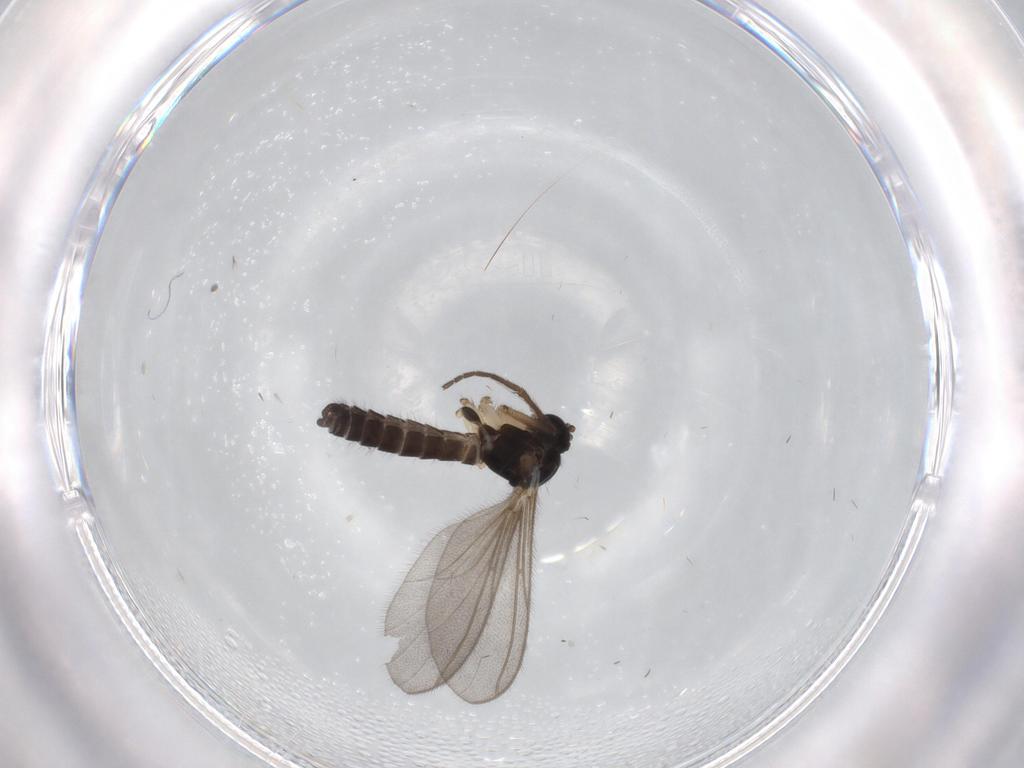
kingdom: Animalia
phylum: Arthropoda
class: Insecta
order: Diptera
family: Mycetophilidae
